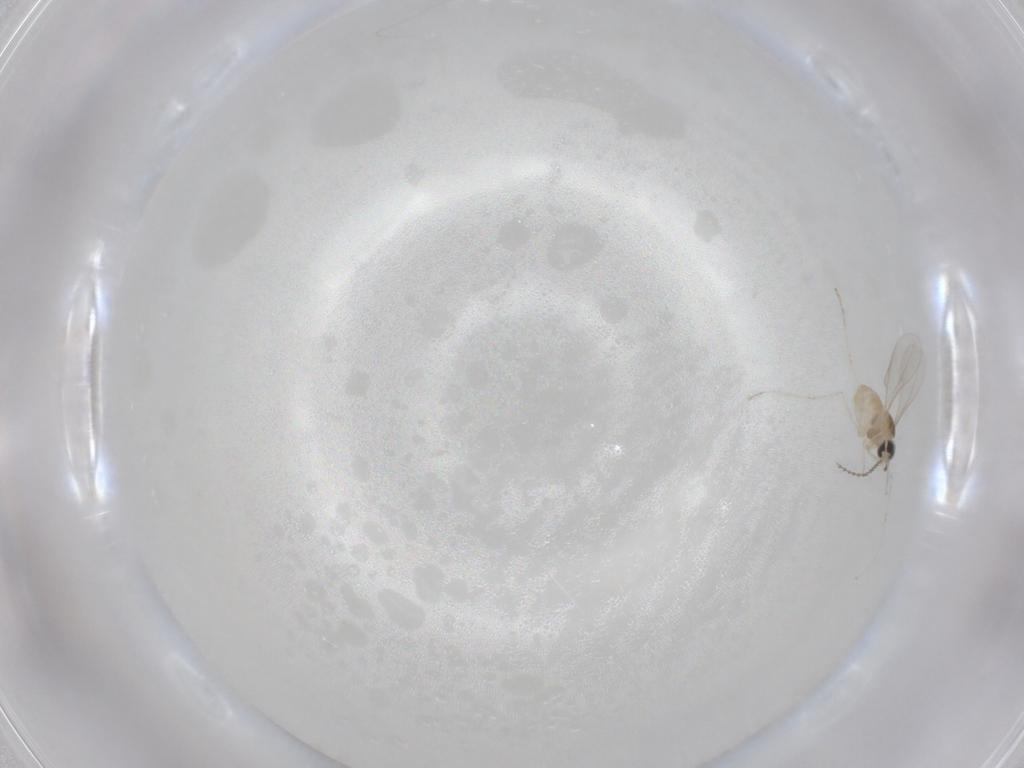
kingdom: Animalia
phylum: Arthropoda
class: Insecta
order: Diptera
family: Cecidomyiidae
